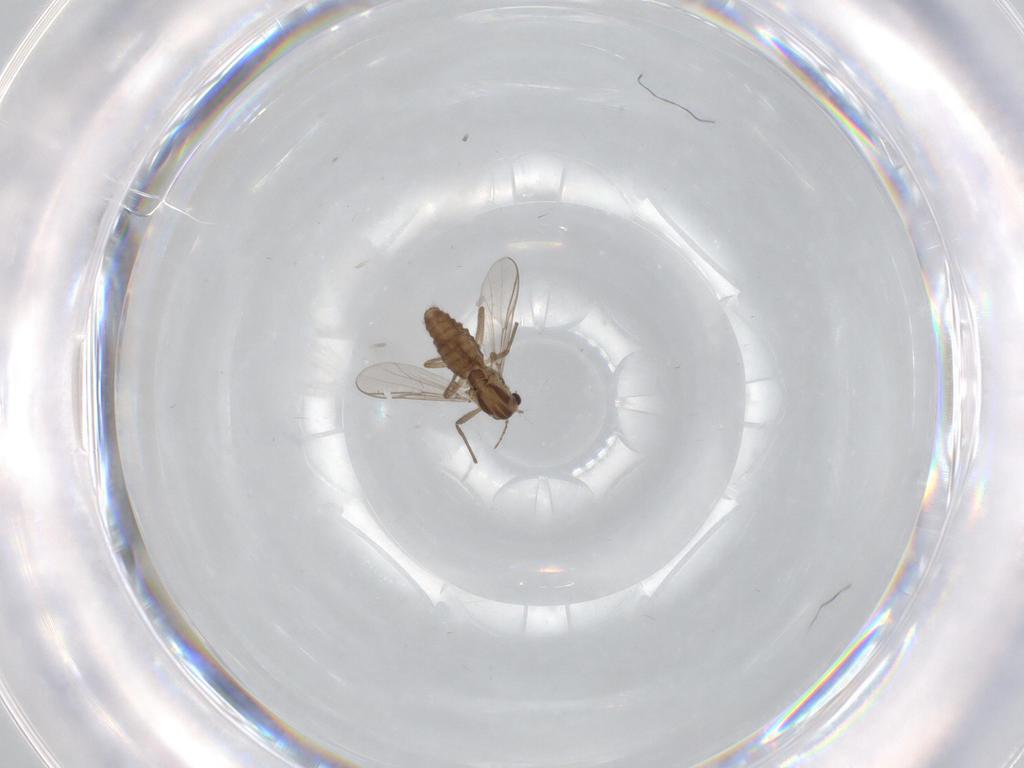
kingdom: Animalia
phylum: Arthropoda
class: Insecta
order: Diptera
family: Chironomidae
